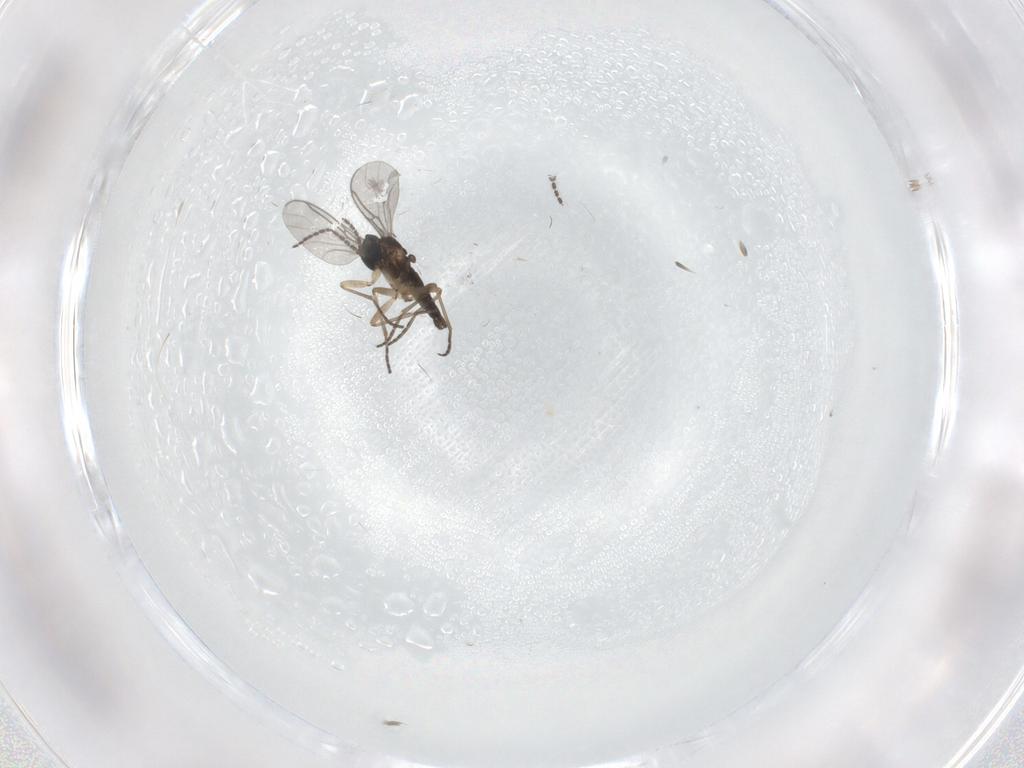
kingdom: Animalia
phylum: Arthropoda
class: Insecta
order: Diptera
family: Sciaridae
